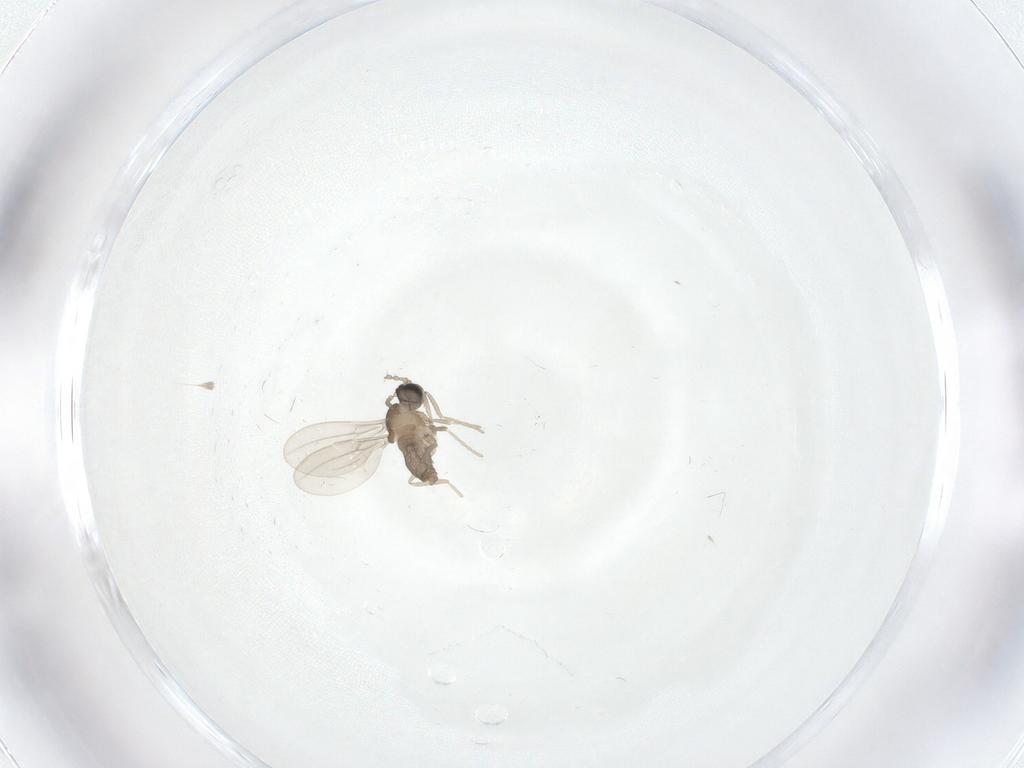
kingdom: Animalia
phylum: Arthropoda
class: Insecta
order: Diptera
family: Cecidomyiidae
